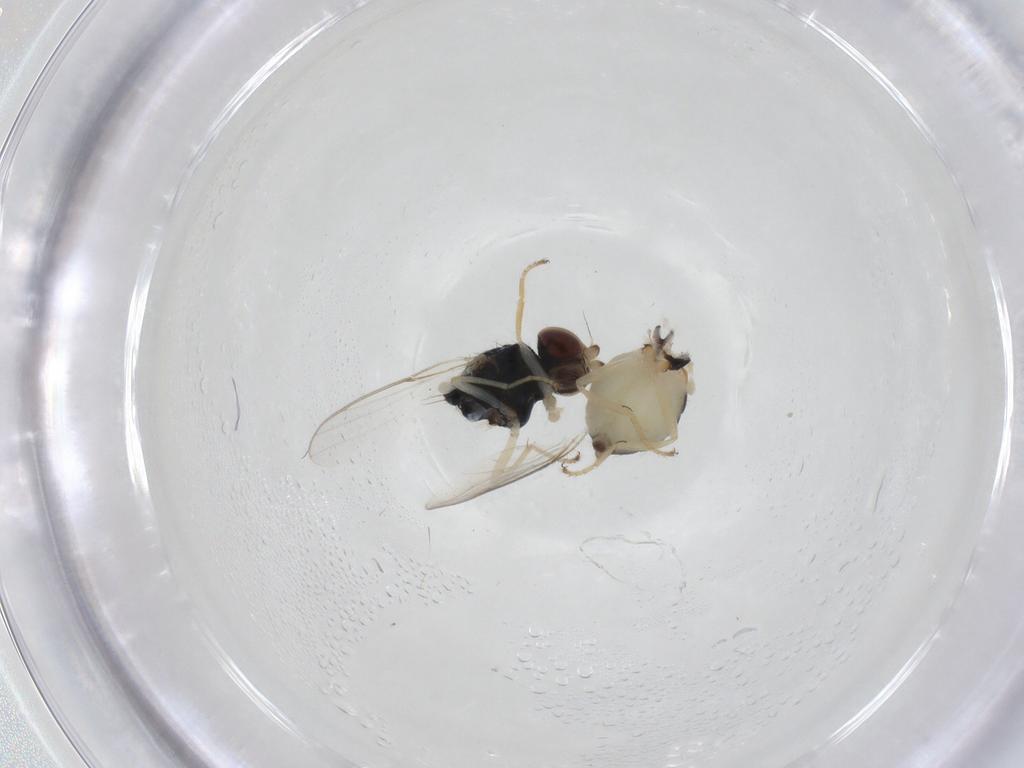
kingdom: Animalia
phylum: Arthropoda
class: Insecta
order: Diptera
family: Chloropidae
